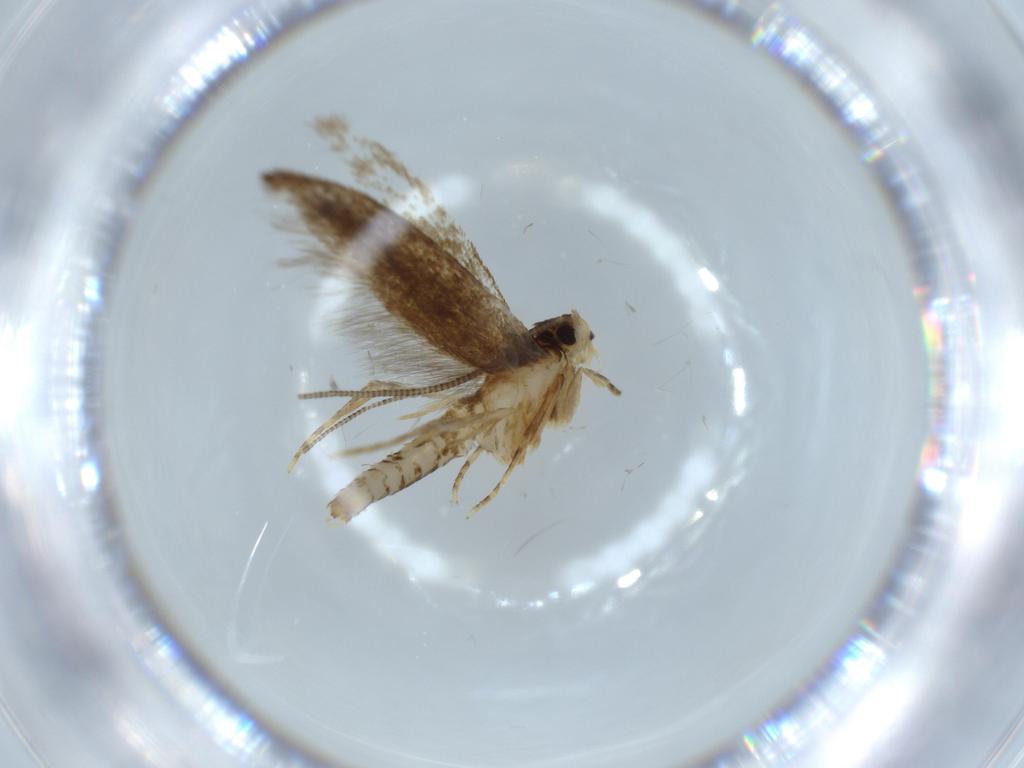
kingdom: Animalia
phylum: Arthropoda
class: Insecta
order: Lepidoptera
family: Tineidae
